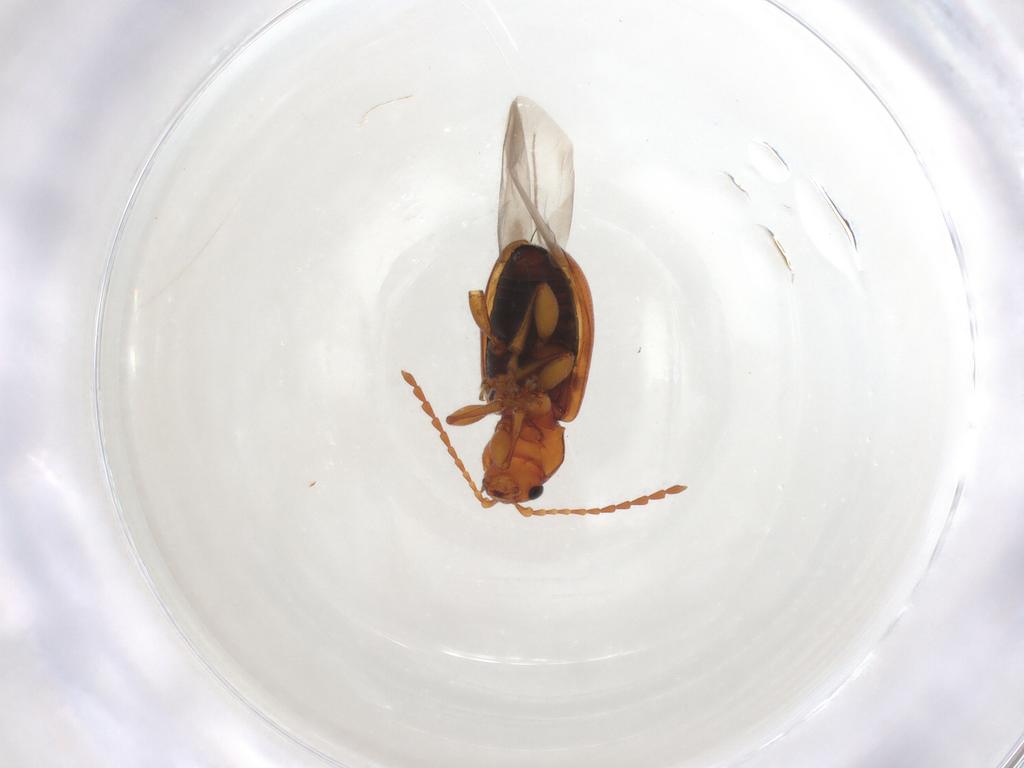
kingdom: Animalia
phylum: Arthropoda
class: Insecta
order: Coleoptera
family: Chrysomelidae
